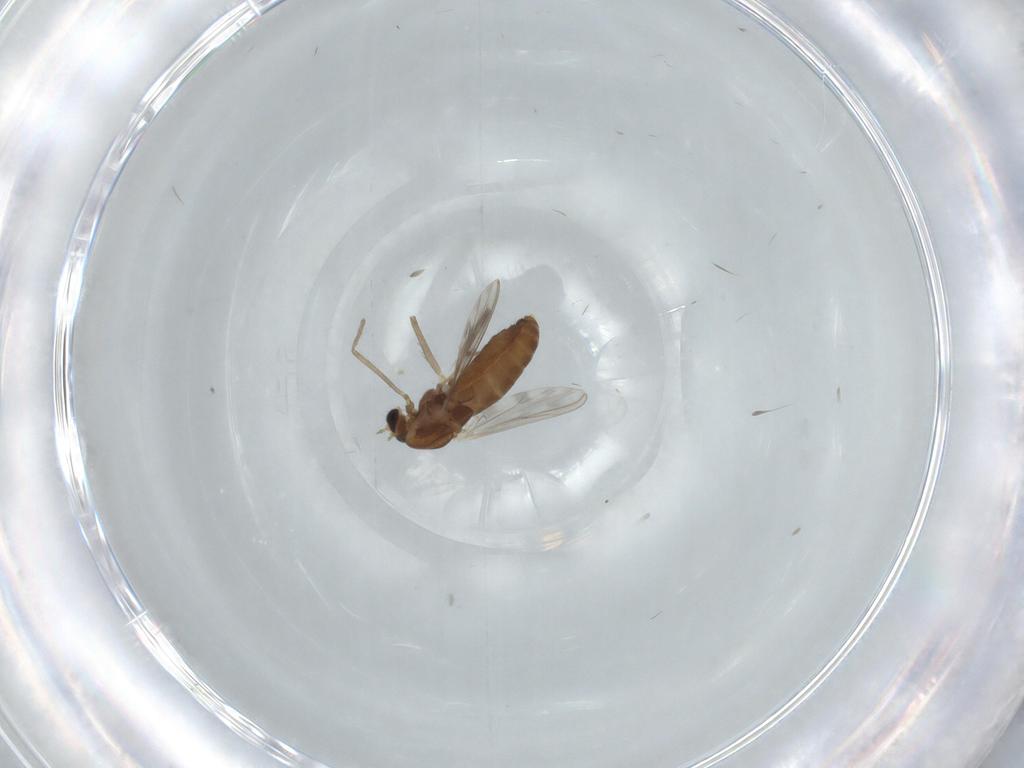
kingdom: Animalia
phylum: Arthropoda
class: Insecta
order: Diptera
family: Chironomidae
